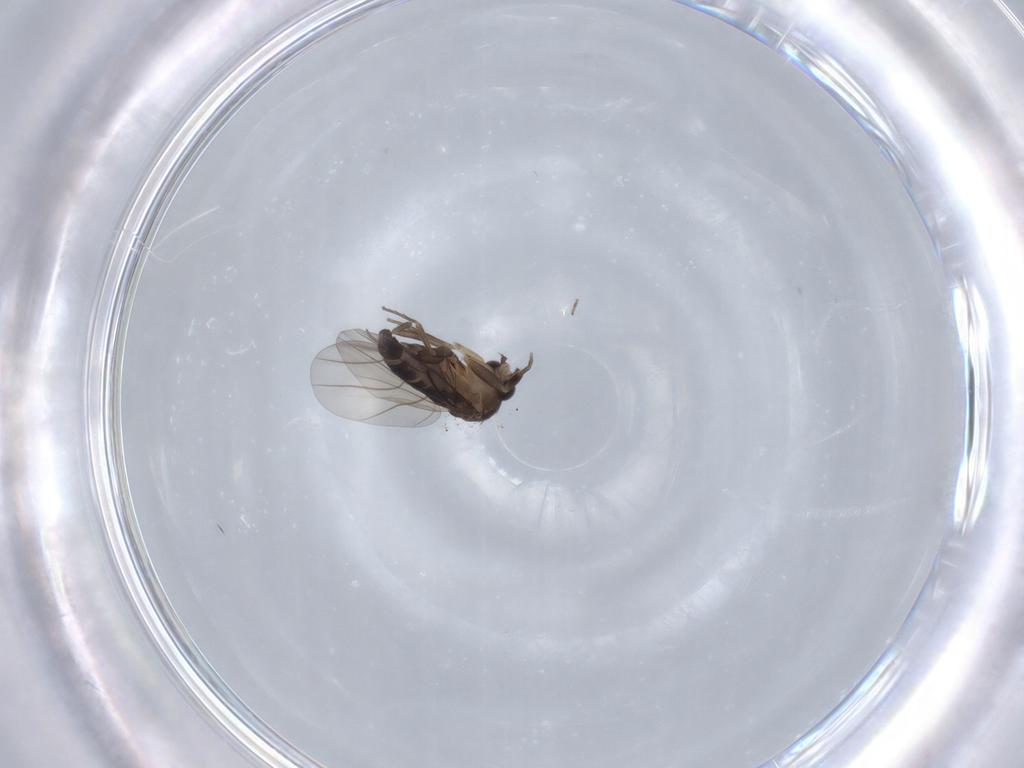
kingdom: Animalia
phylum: Arthropoda
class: Insecta
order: Diptera
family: Phoridae
